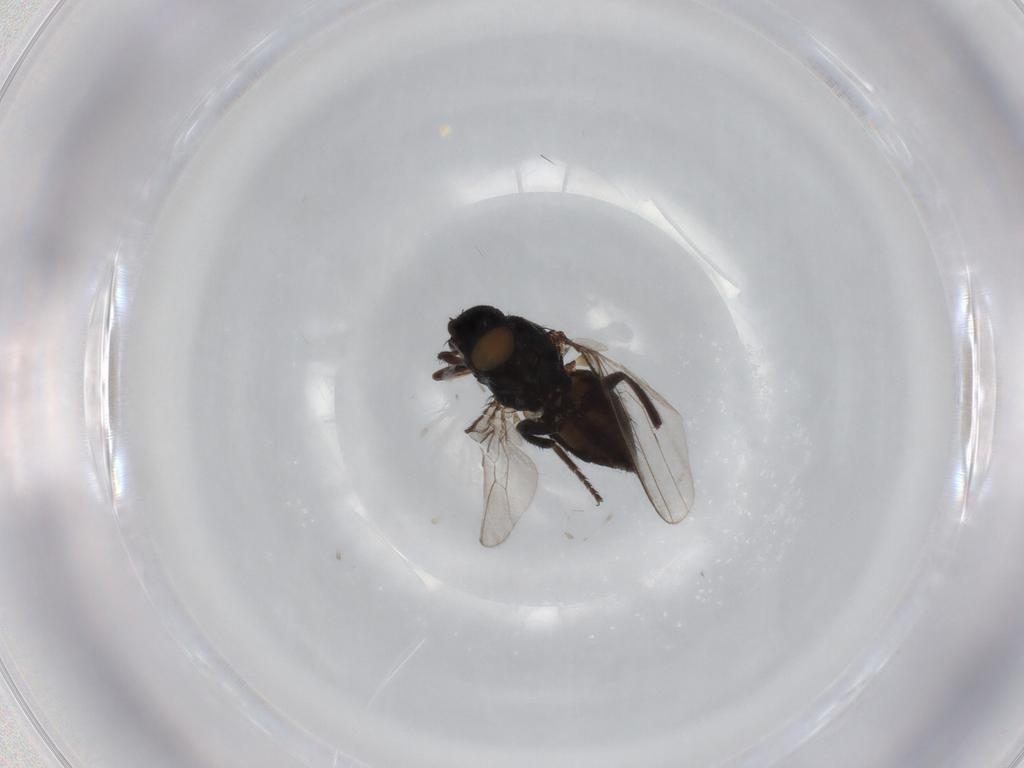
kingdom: Animalia
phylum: Arthropoda
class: Insecta
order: Diptera
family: Milichiidae
